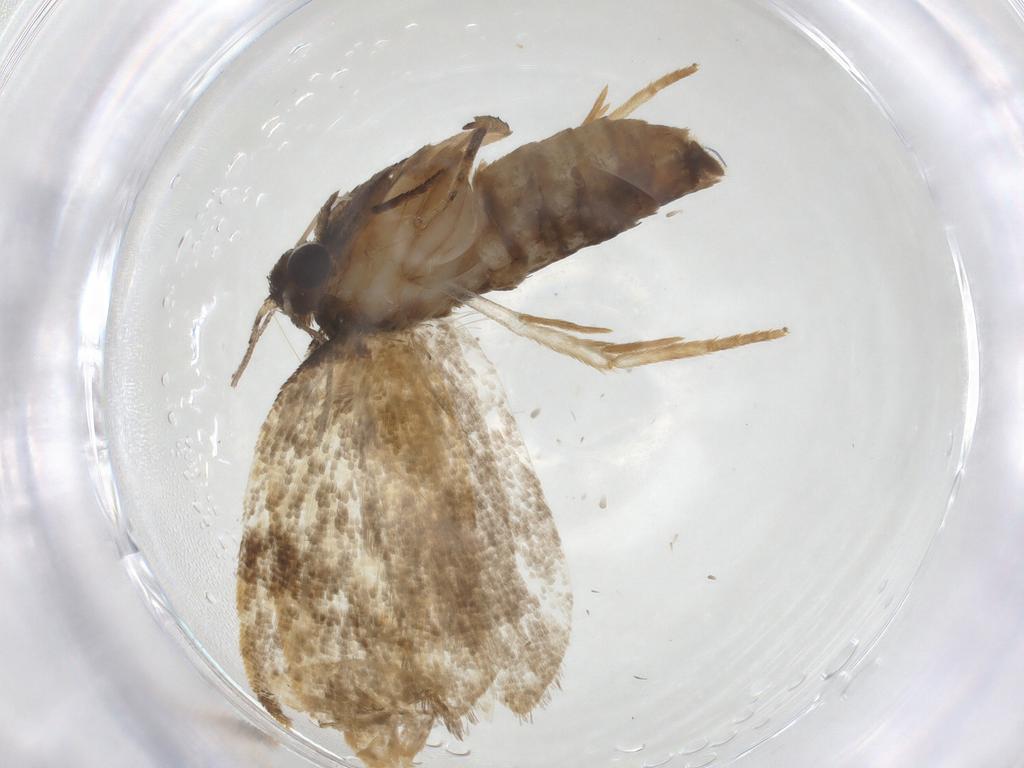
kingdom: Animalia
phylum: Arthropoda
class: Insecta
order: Lepidoptera
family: Tortricidae
